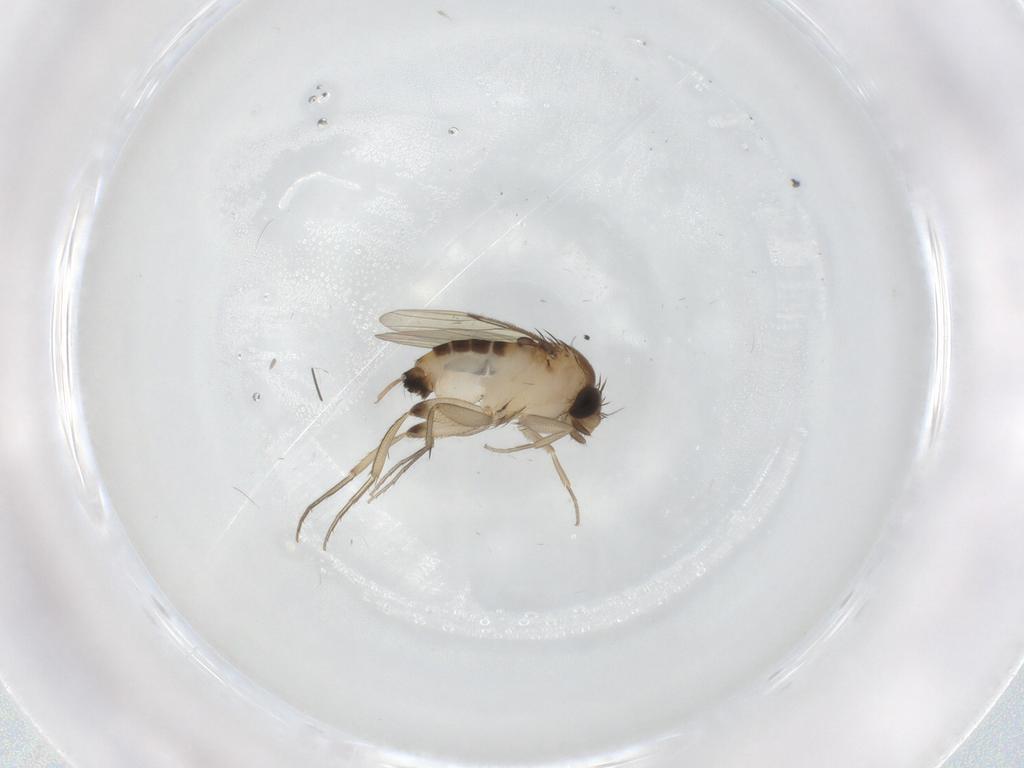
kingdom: Animalia
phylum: Arthropoda
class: Insecta
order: Diptera
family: Phoridae
